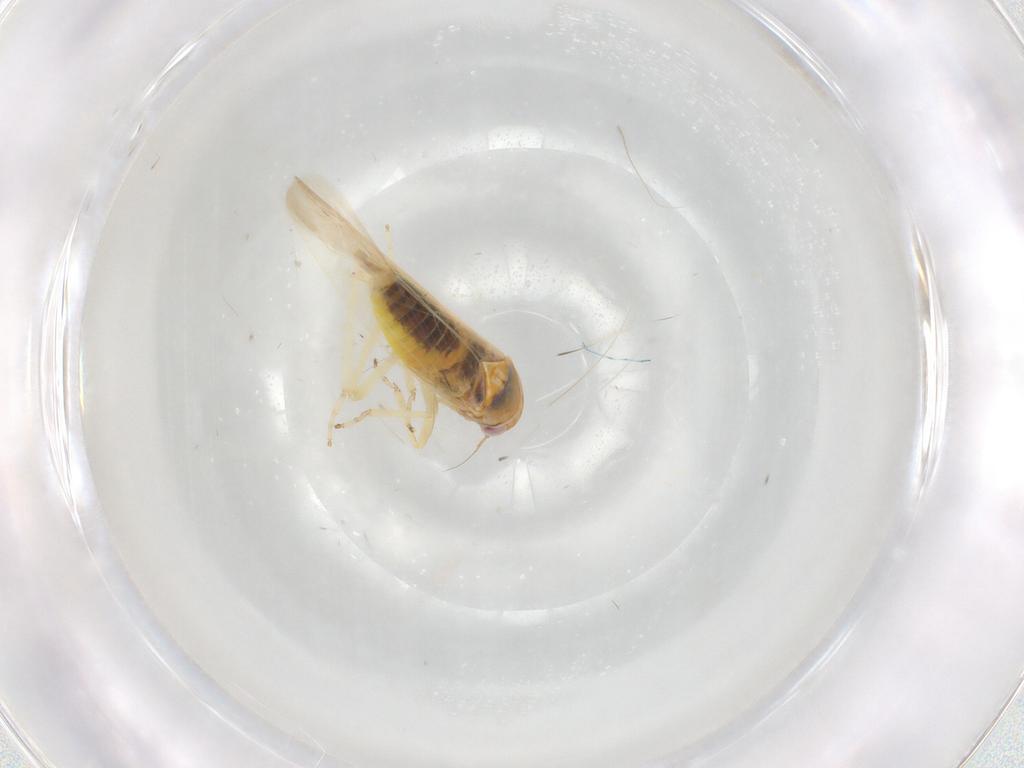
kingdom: Animalia
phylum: Arthropoda
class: Insecta
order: Hemiptera
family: Cicadellidae
